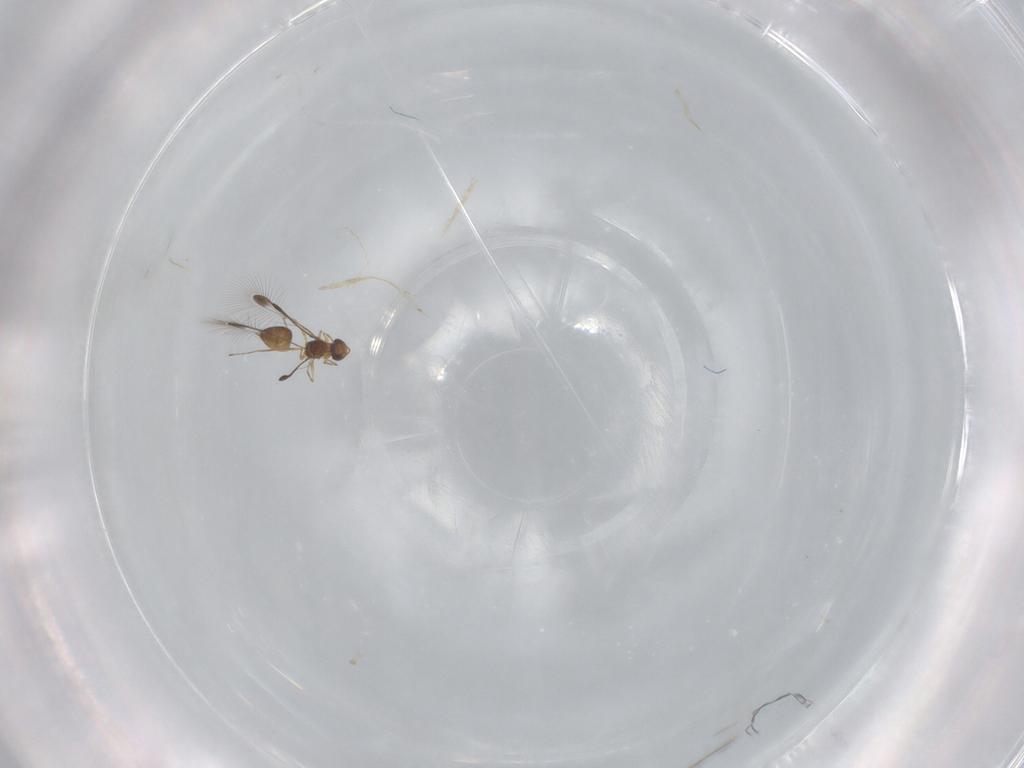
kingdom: Animalia
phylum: Arthropoda
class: Insecta
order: Hymenoptera
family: Mymaridae
